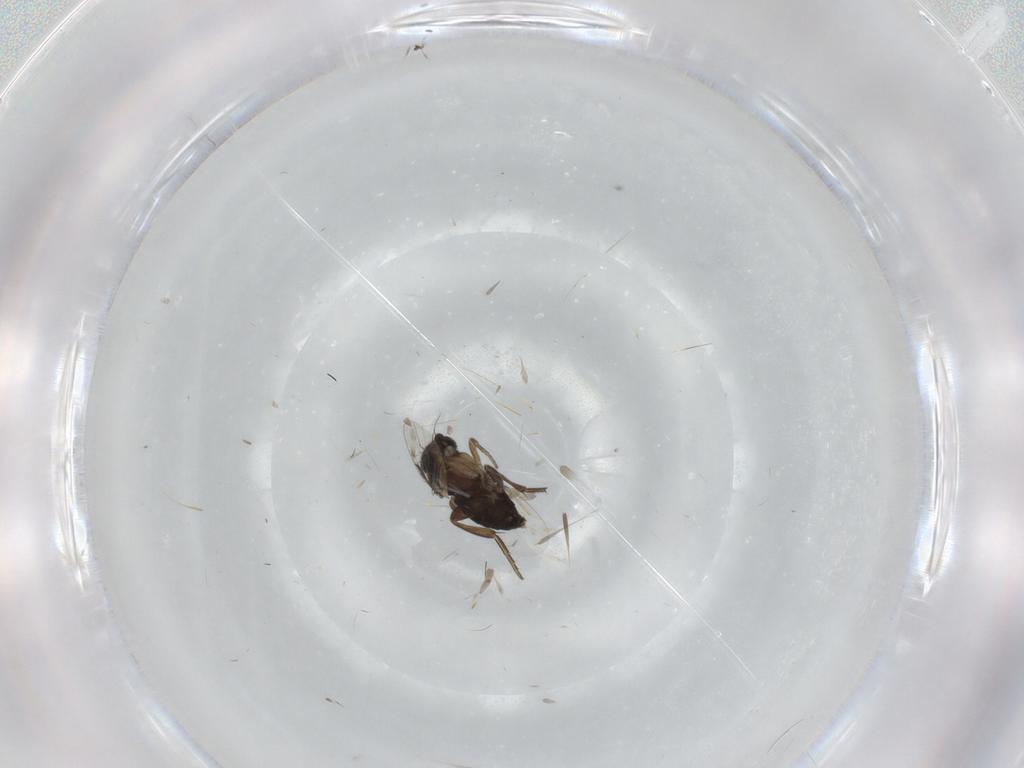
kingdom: Animalia
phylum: Arthropoda
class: Insecta
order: Diptera
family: Phoridae
